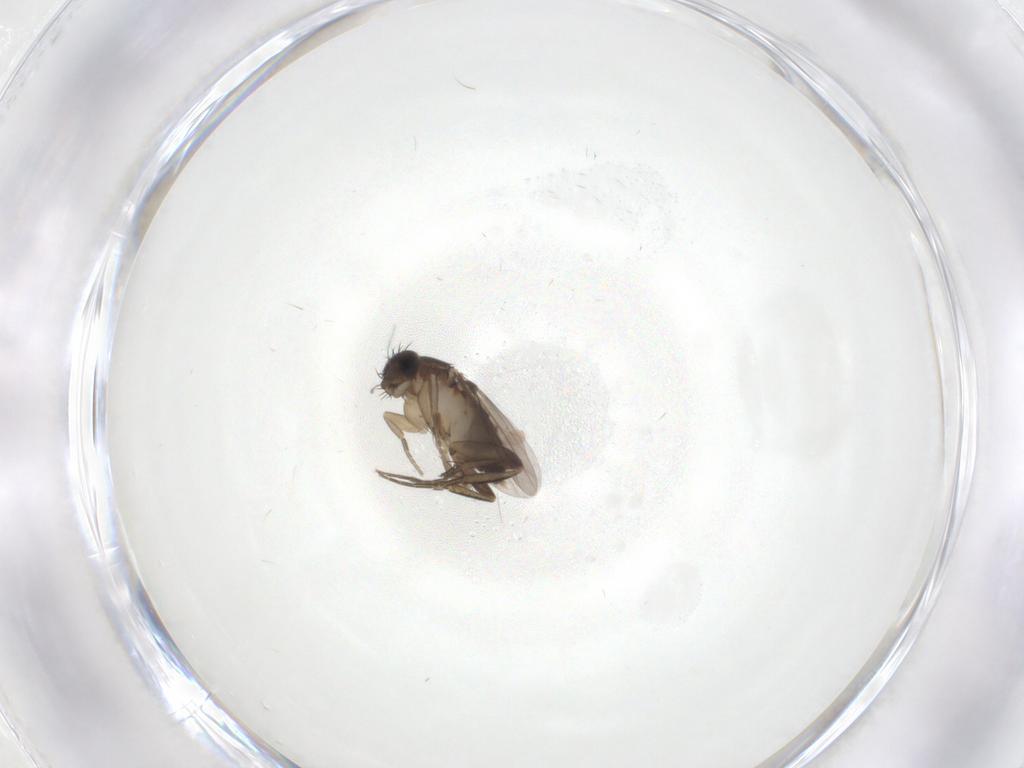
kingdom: Animalia
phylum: Arthropoda
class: Insecta
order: Diptera
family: Phoridae
